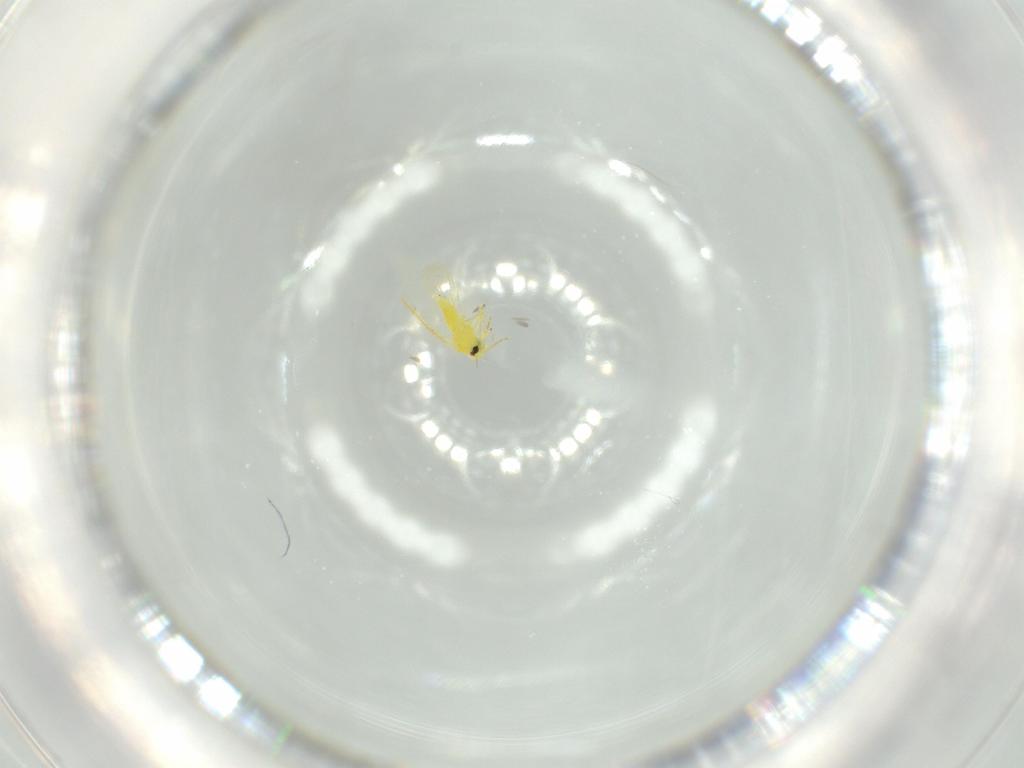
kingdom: Animalia
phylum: Arthropoda
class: Insecta
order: Hemiptera
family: Aleyrodidae
